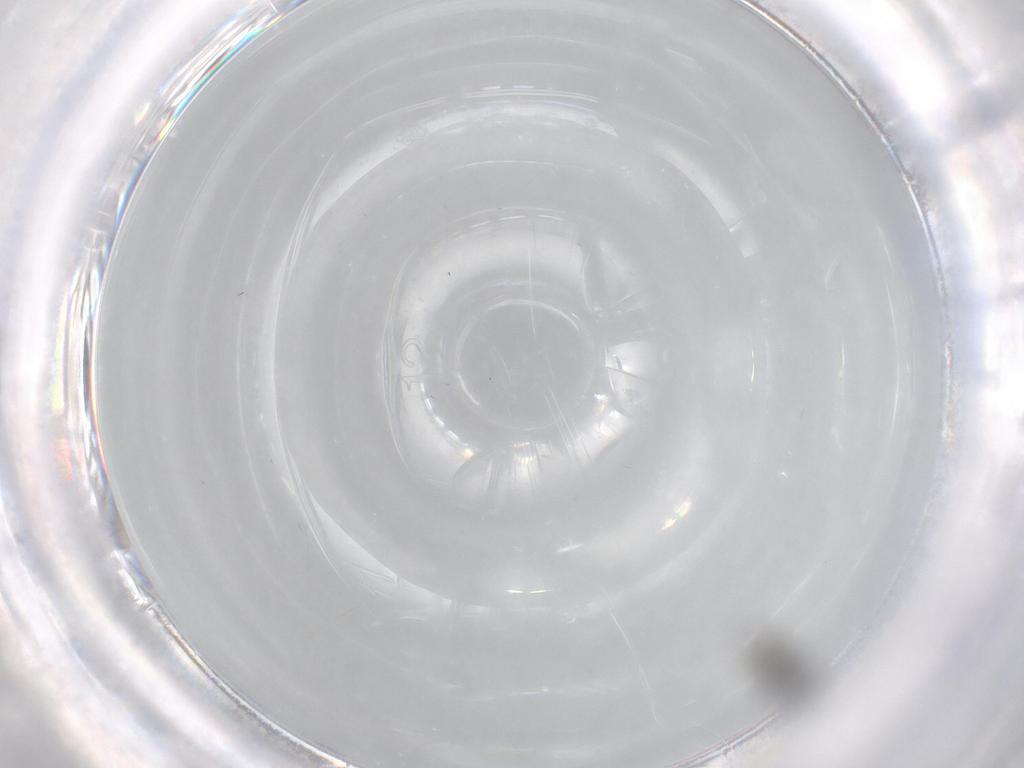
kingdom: Animalia
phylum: Arthropoda
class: Insecta
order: Diptera
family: Psychodidae
